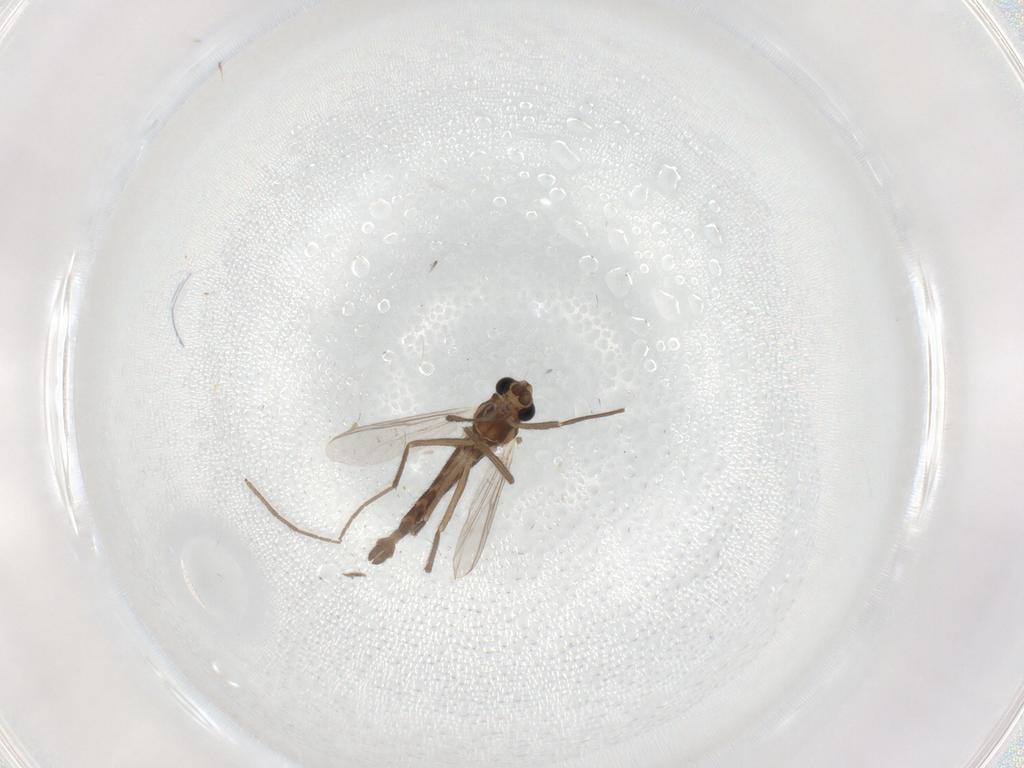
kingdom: Animalia
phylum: Arthropoda
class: Insecta
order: Diptera
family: Chironomidae
